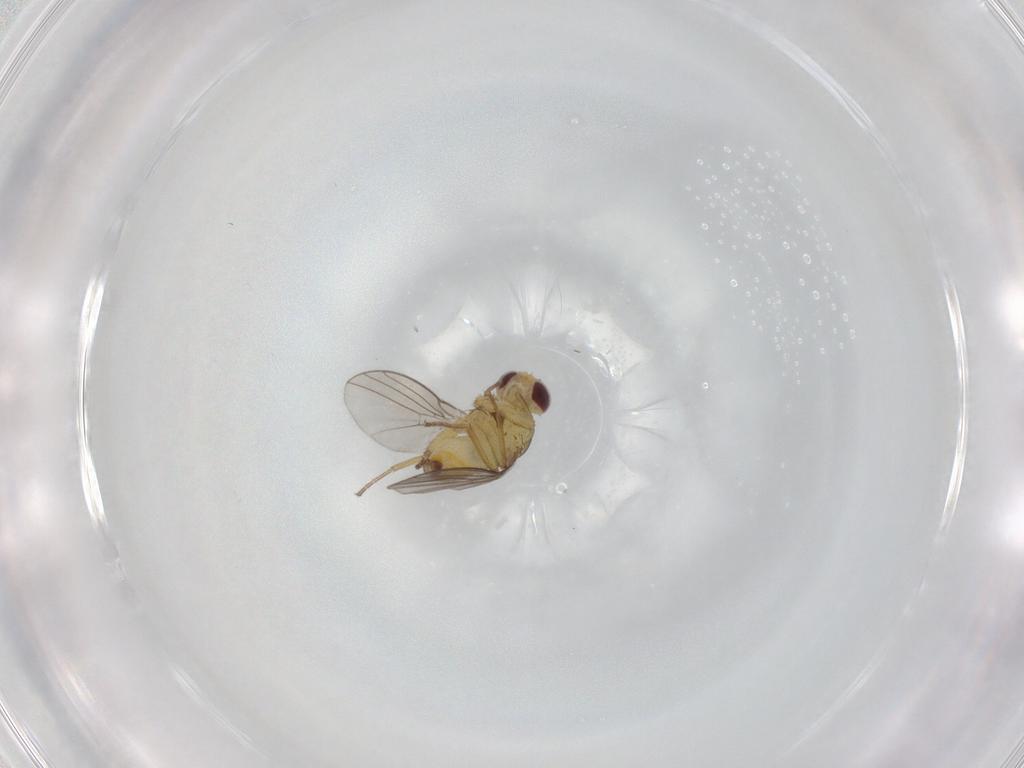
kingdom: Animalia
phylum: Arthropoda
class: Insecta
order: Diptera
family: Agromyzidae
